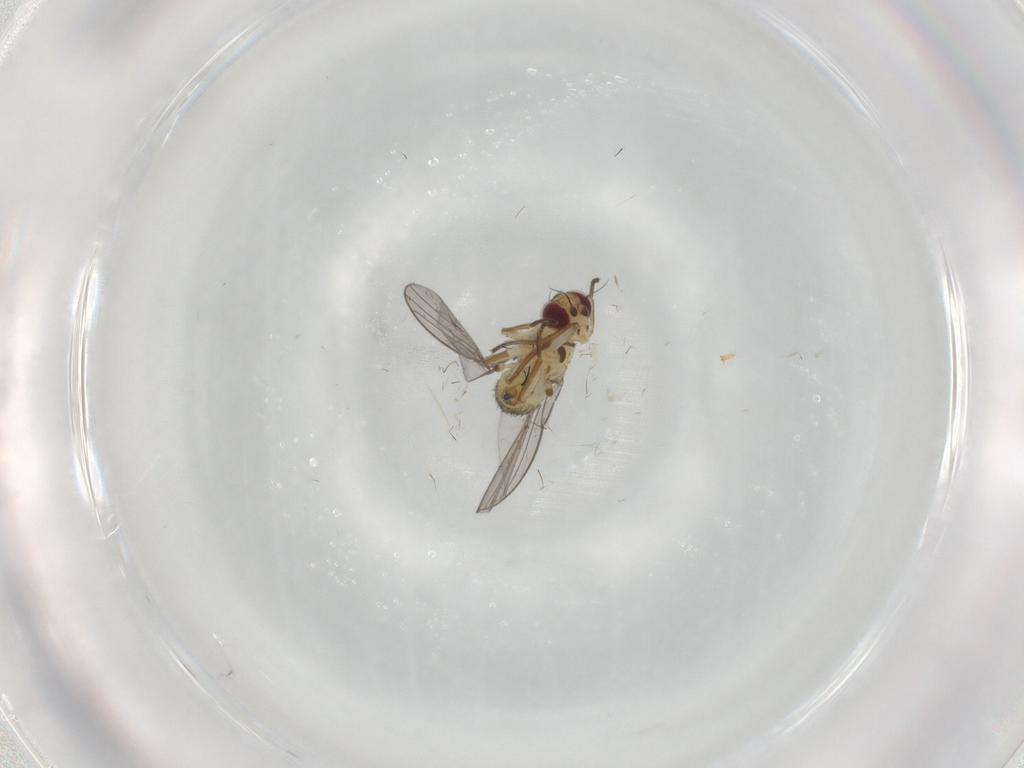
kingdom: Animalia
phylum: Arthropoda
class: Insecta
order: Diptera
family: Agromyzidae
